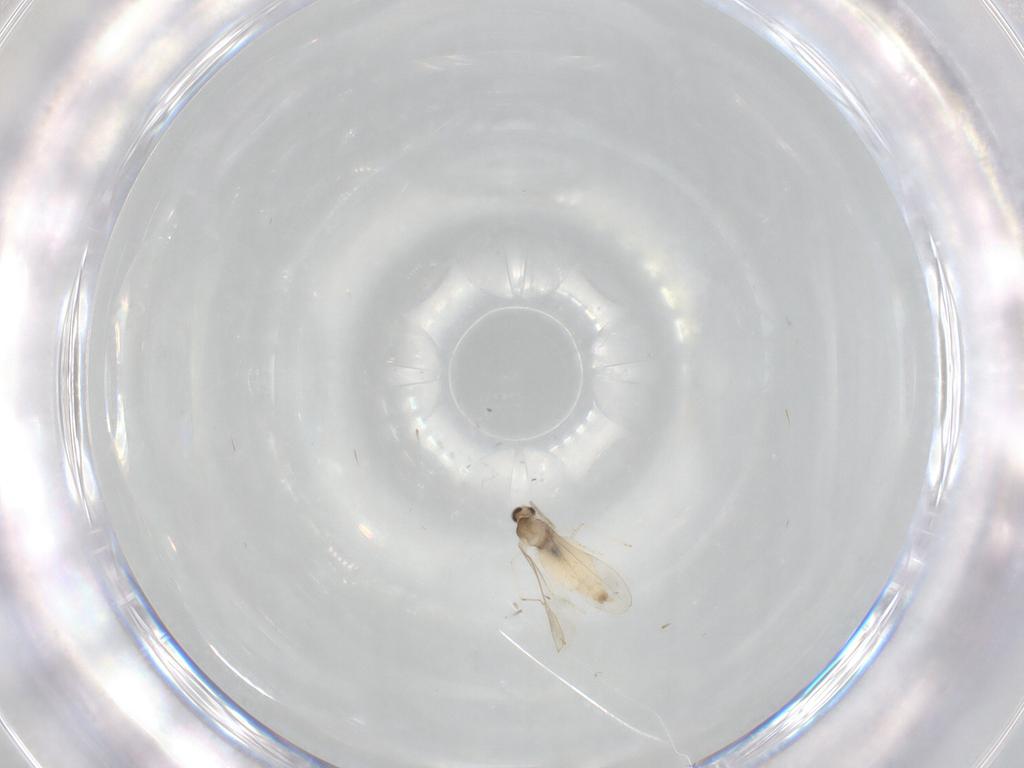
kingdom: Animalia
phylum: Arthropoda
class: Insecta
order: Diptera
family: Cecidomyiidae
